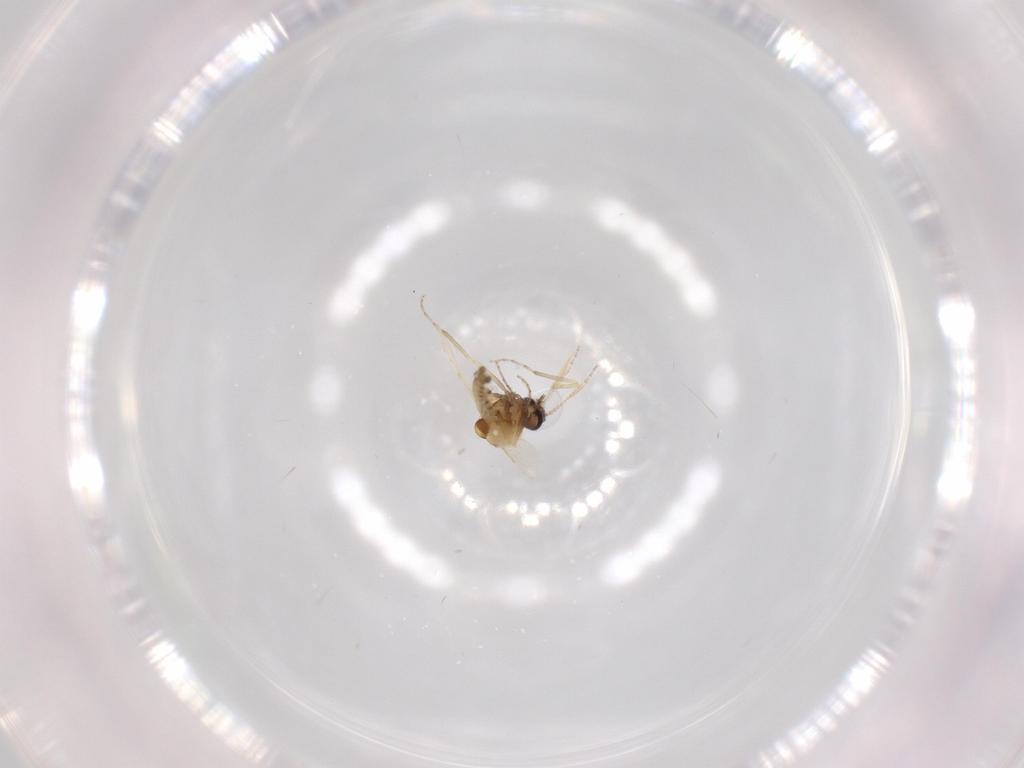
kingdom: Animalia
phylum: Arthropoda
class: Insecta
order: Diptera
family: Ceratopogonidae
